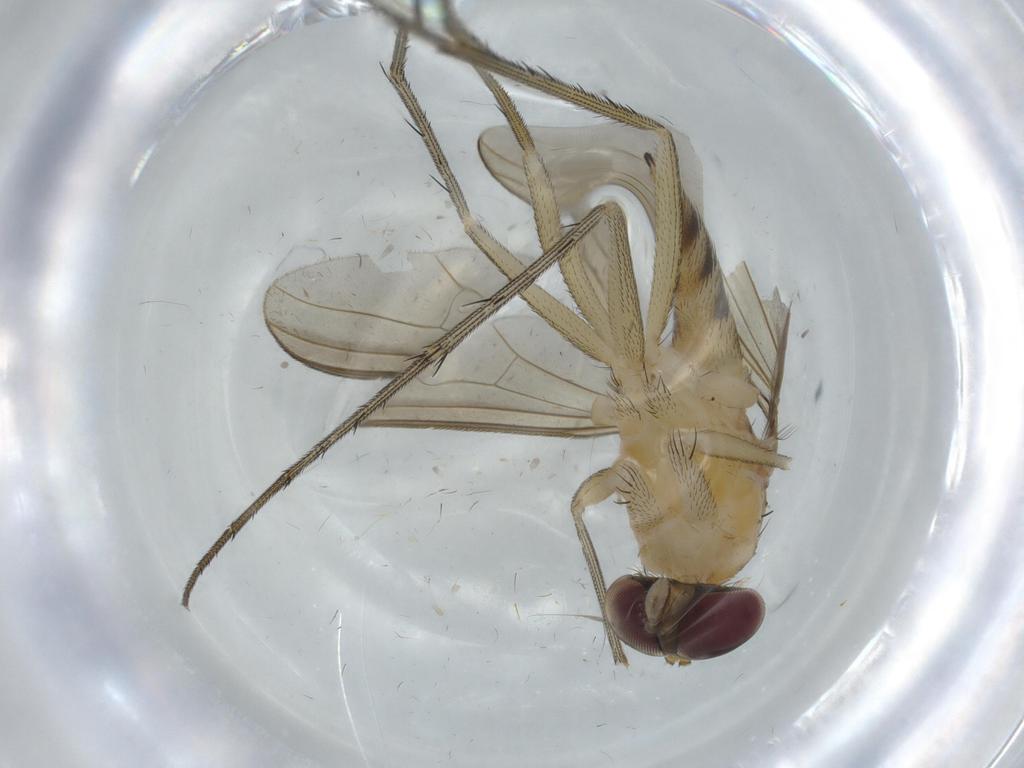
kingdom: Animalia
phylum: Arthropoda
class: Insecta
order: Diptera
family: Dolichopodidae
